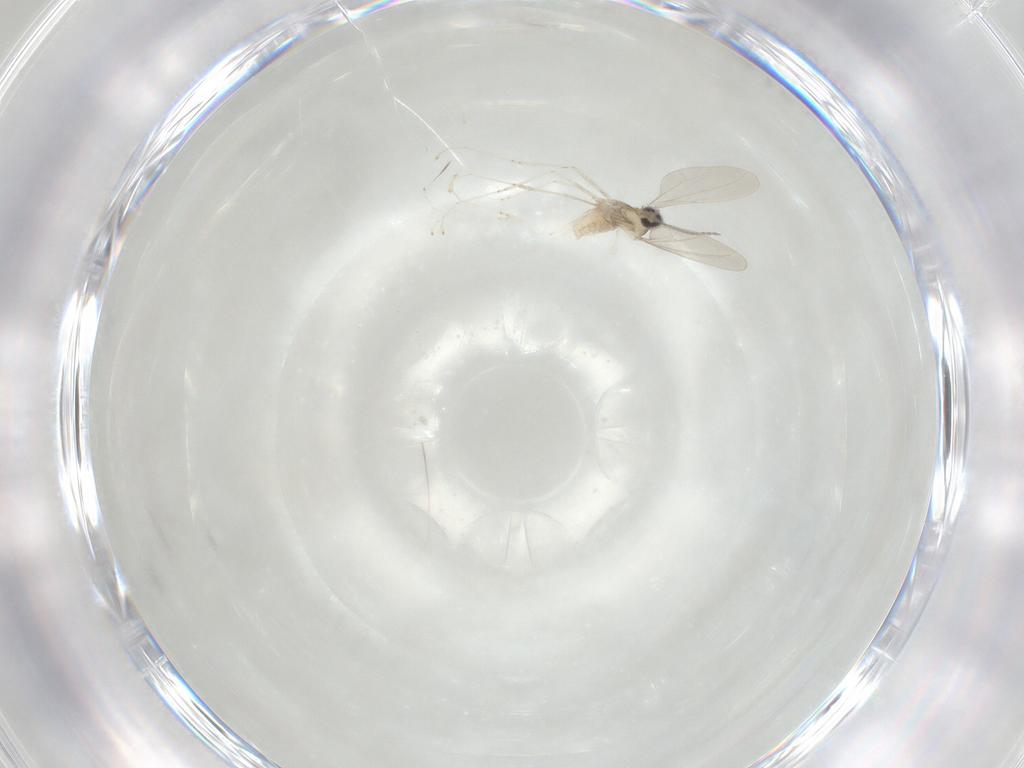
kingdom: Animalia
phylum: Arthropoda
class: Insecta
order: Diptera
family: Cecidomyiidae
